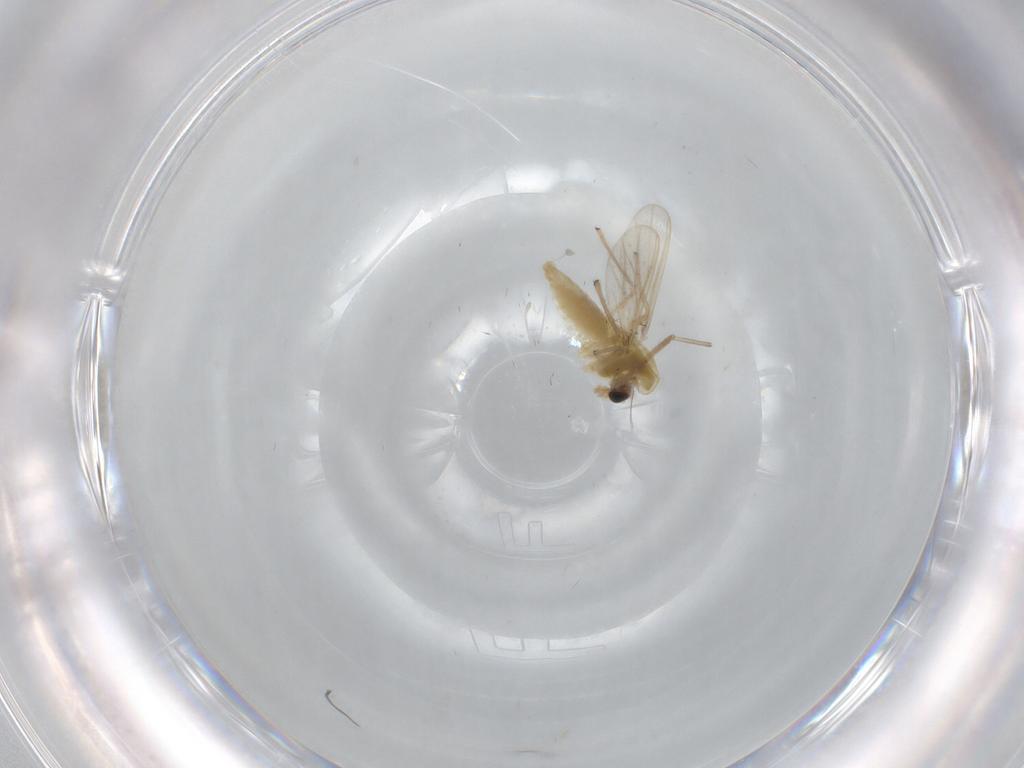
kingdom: Animalia
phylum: Arthropoda
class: Insecta
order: Diptera
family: Chironomidae
